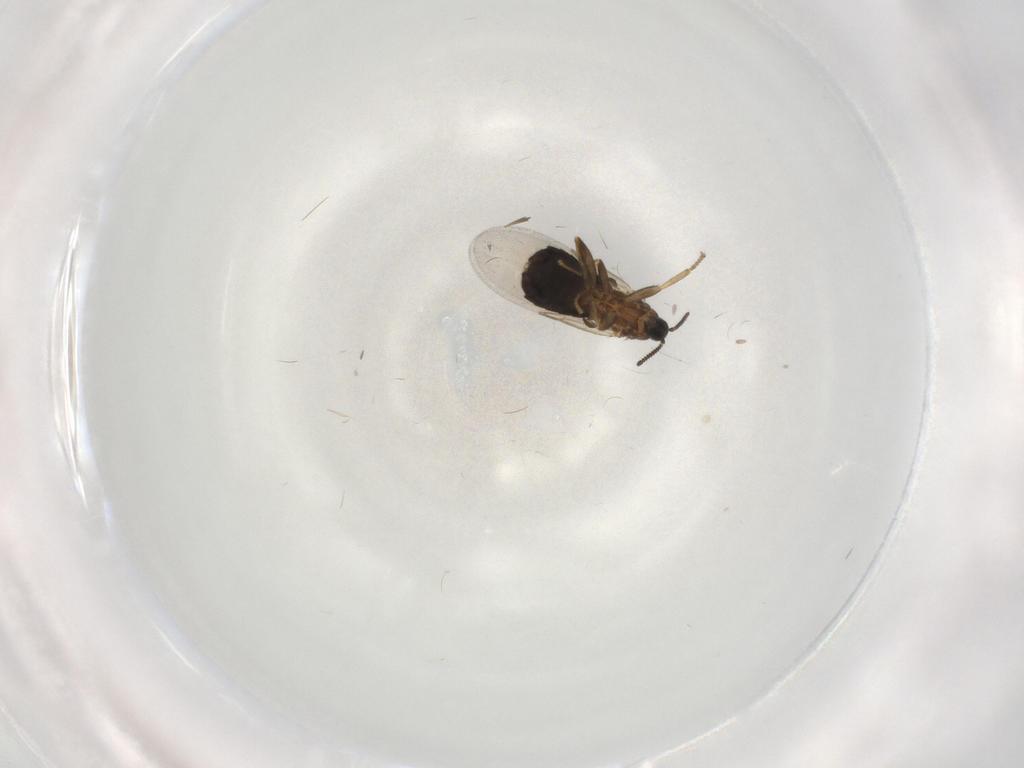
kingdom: Animalia
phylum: Arthropoda
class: Insecta
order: Diptera
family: Scatopsidae
